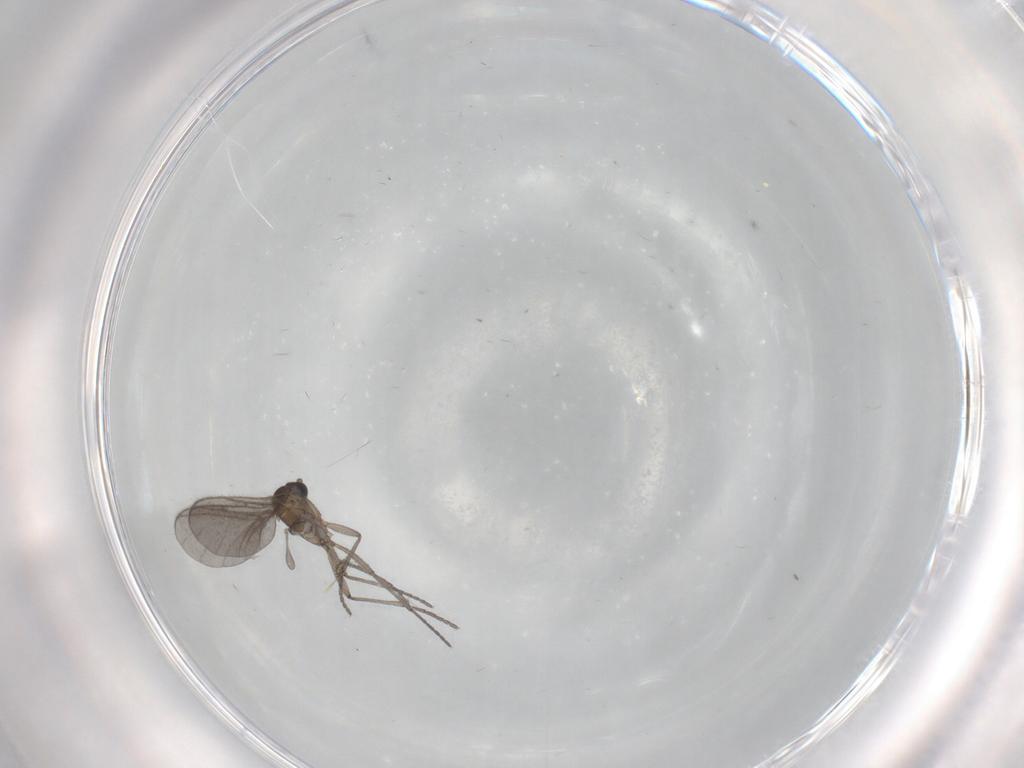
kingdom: Animalia
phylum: Arthropoda
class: Insecta
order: Diptera
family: Sciaridae
